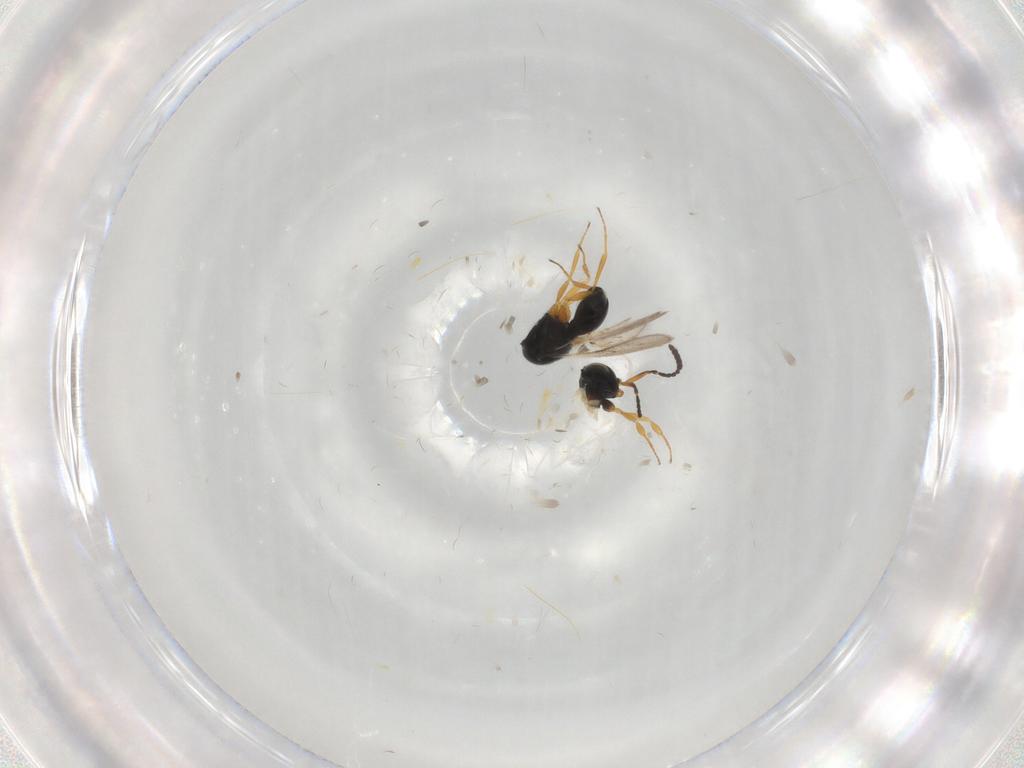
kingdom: Animalia
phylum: Arthropoda
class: Insecta
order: Hymenoptera
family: Scelionidae
